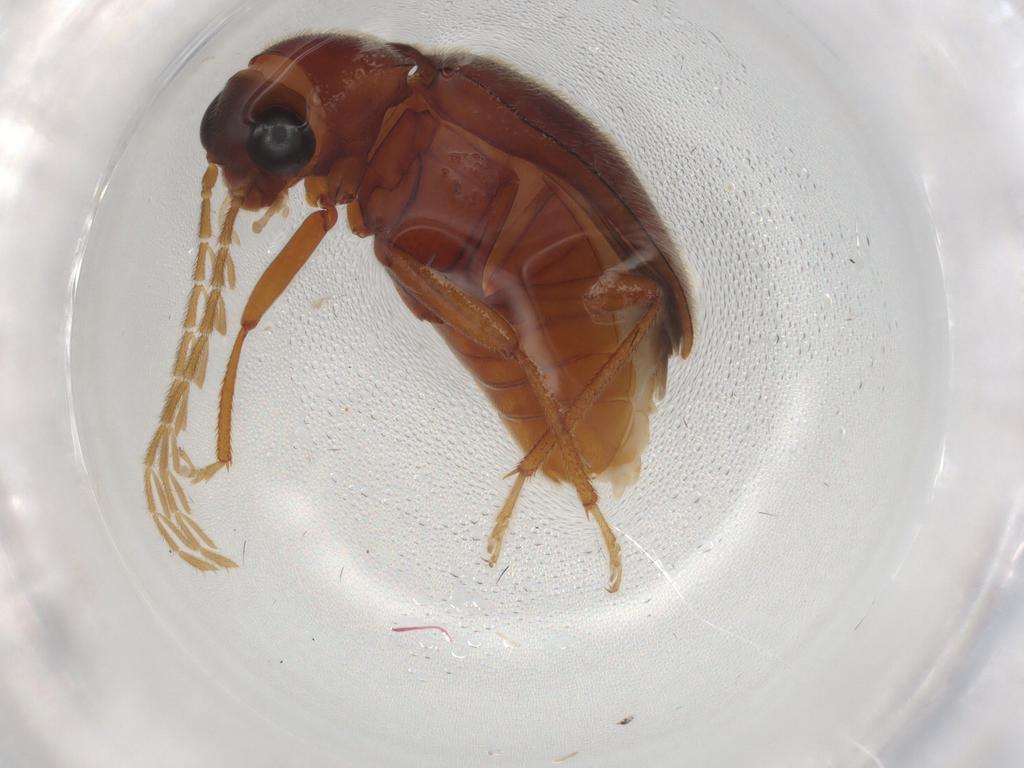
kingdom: Animalia
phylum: Arthropoda
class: Insecta
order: Coleoptera
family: Ptilodactylidae
